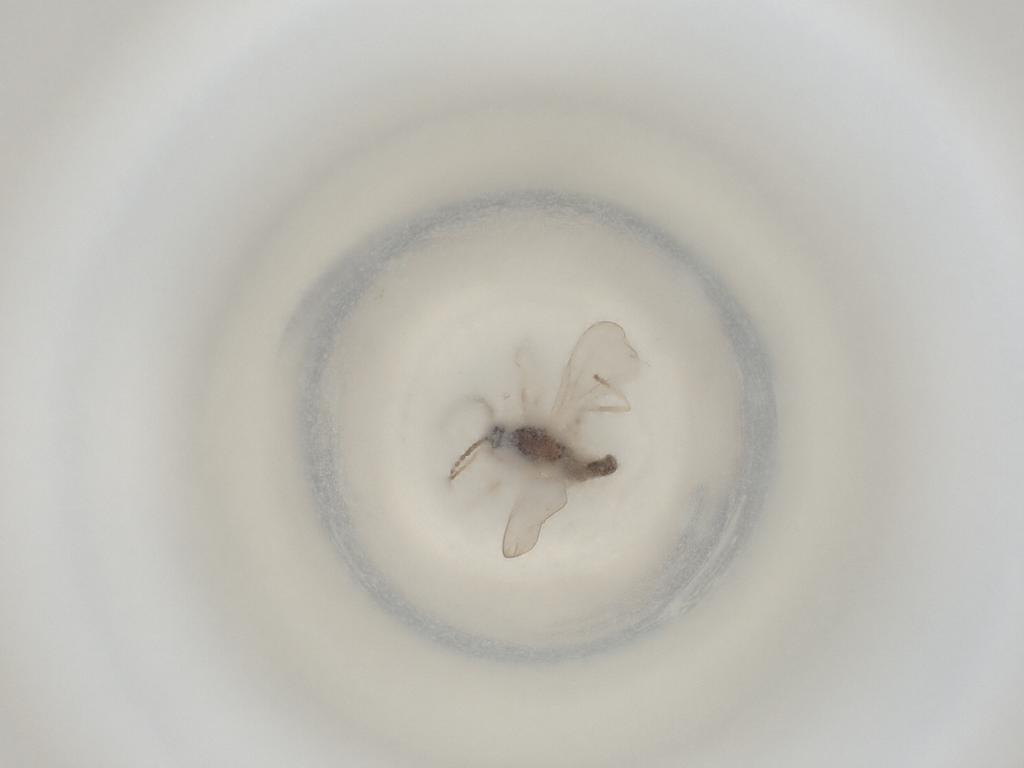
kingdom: Animalia
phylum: Arthropoda
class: Insecta
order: Diptera
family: Cecidomyiidae
